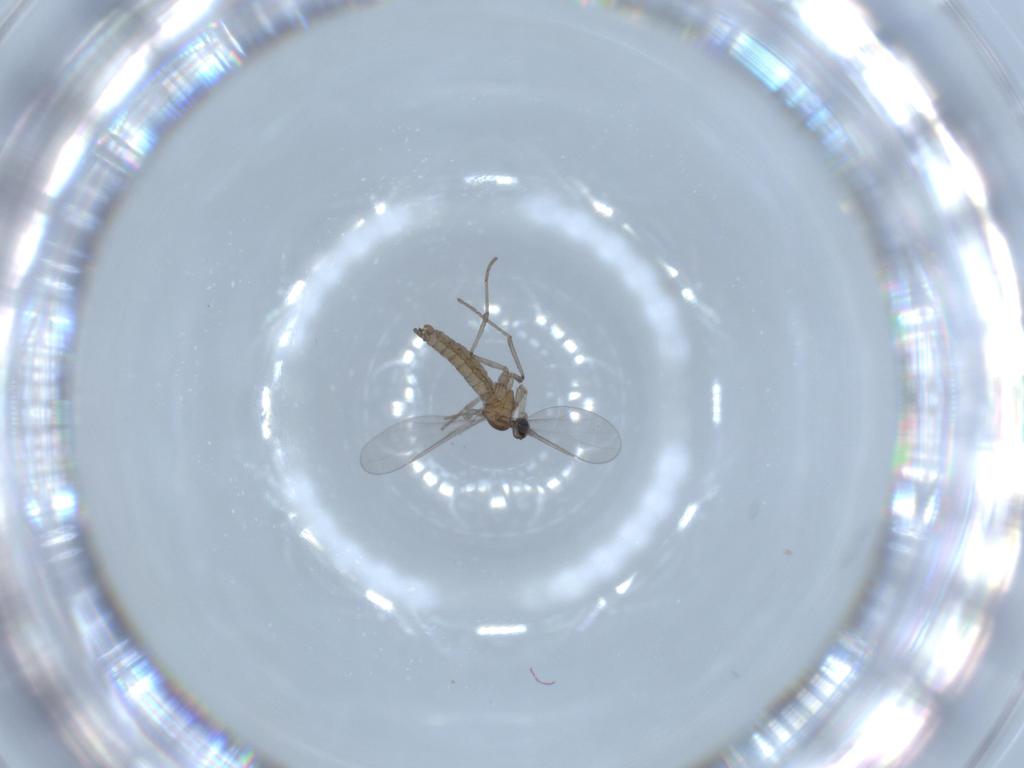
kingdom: Animalia
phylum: Arthropoda
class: Insecta
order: Diptera
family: Cecidomyiidae
